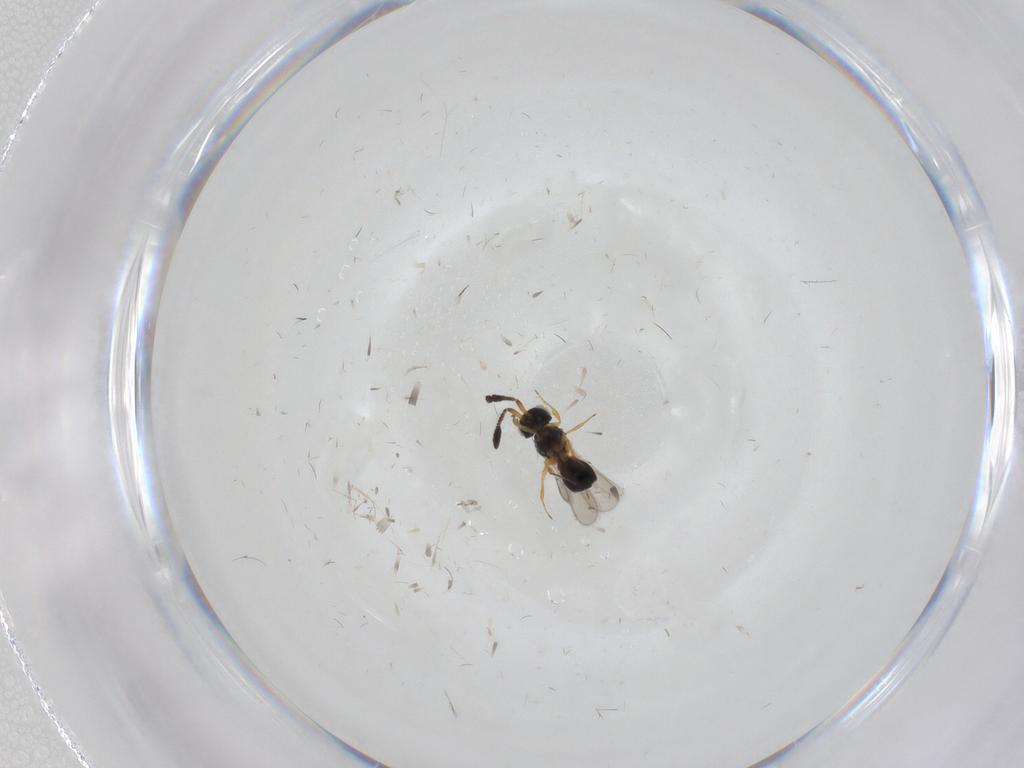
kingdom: Animalia
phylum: Arthropoda
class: Insecta
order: Hymenoptera
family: Scelionidae
